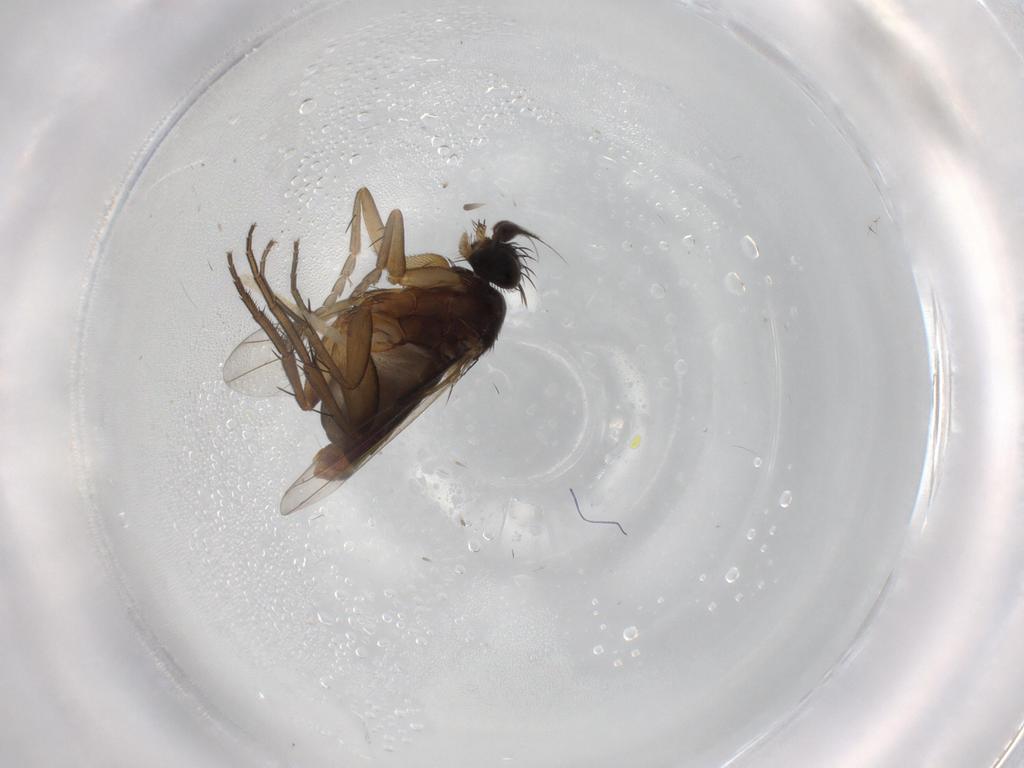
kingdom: Animalia
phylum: Arthropoda
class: Insecta
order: Diptera
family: Phoridae
